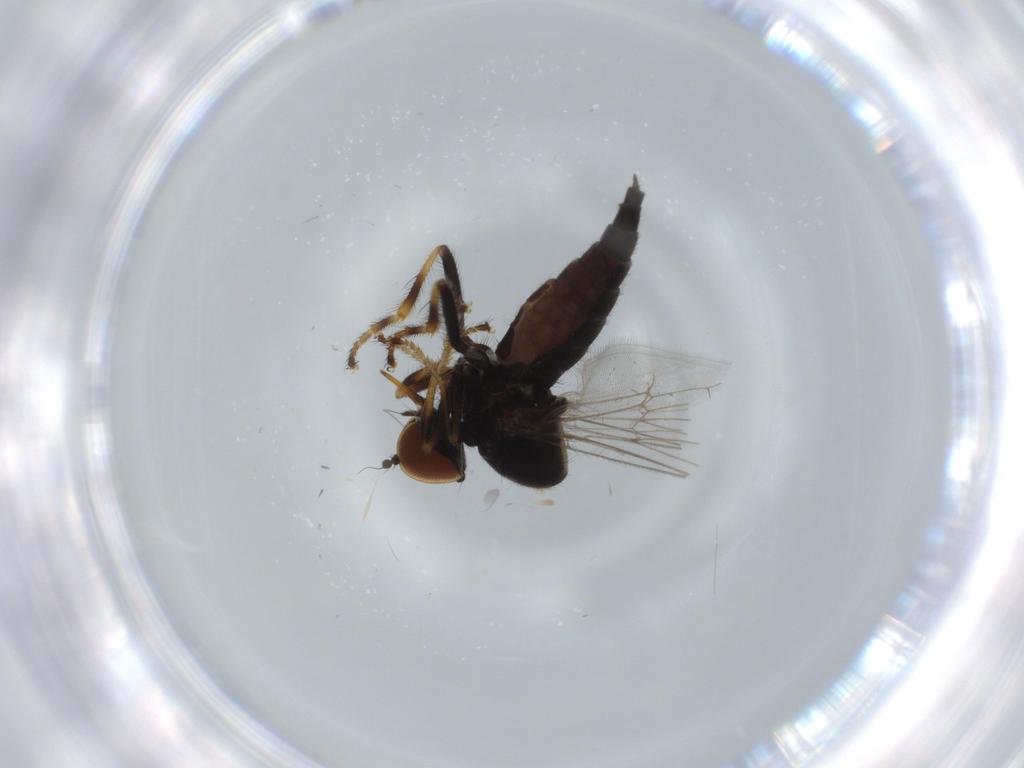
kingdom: Animalia
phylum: Arthropoda
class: Insecta
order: Diptera
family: Hybotidae
